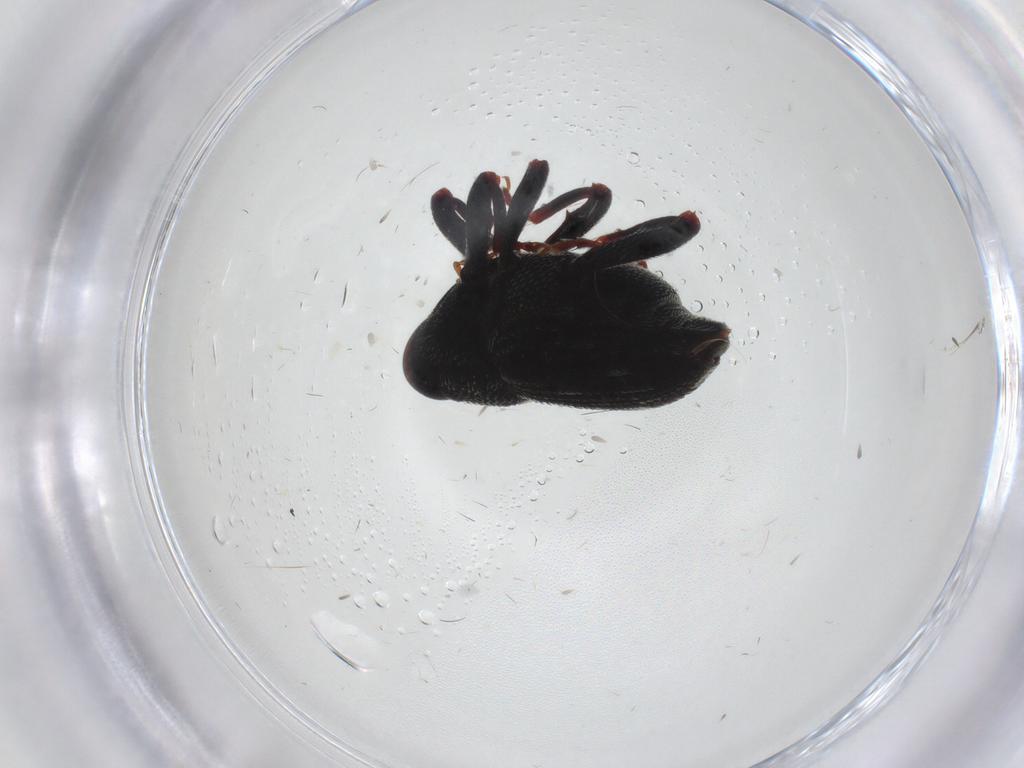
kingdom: Animalia
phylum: Arthropoda
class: Insecta
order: Coleoptera
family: Curculionidae
